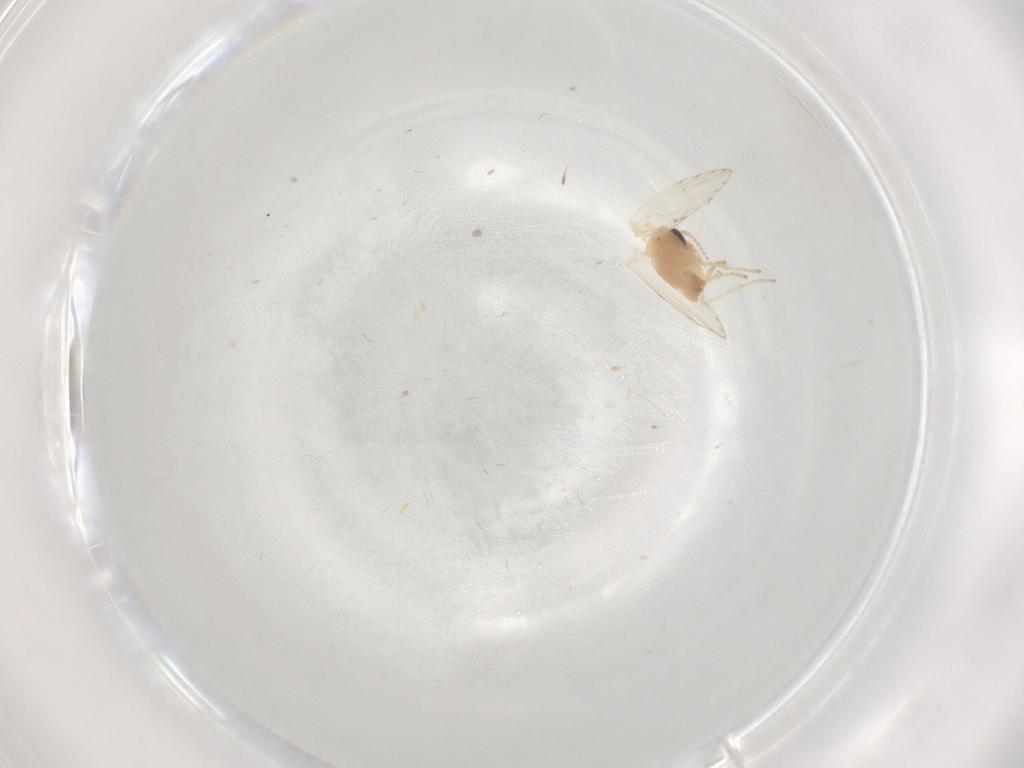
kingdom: Animalia
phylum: Arthropoda
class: Insecta
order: Diptera
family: Psychodidae
